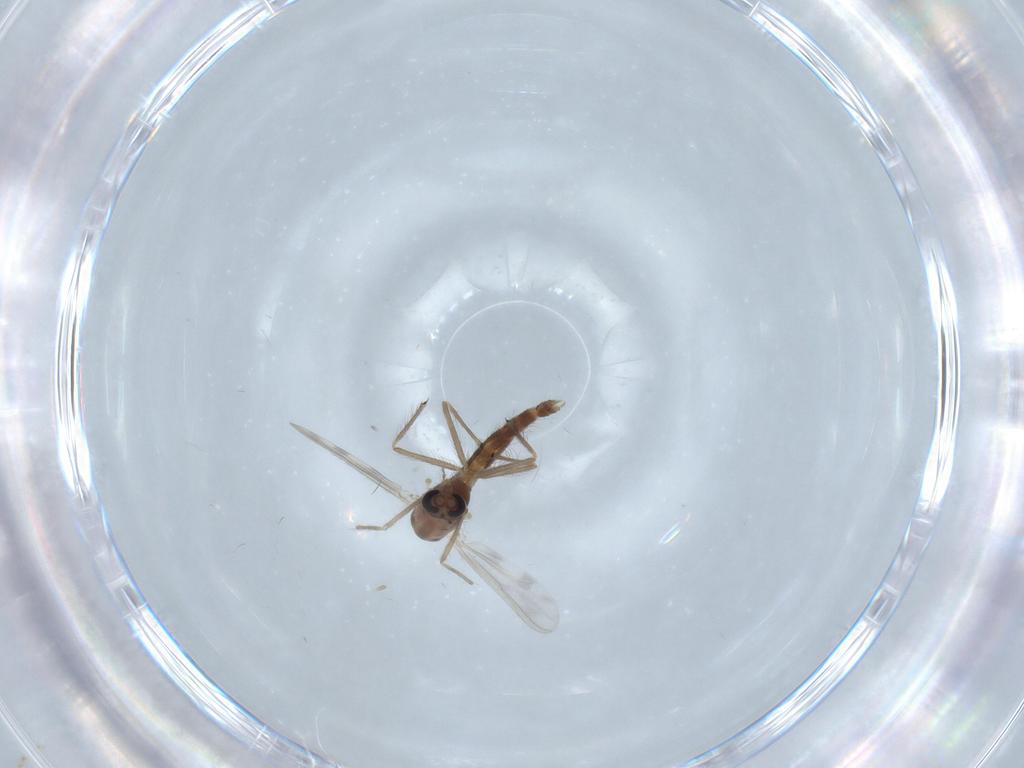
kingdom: Animalia
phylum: Arthropoda
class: Insecta
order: Diptera
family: Chironomidae
